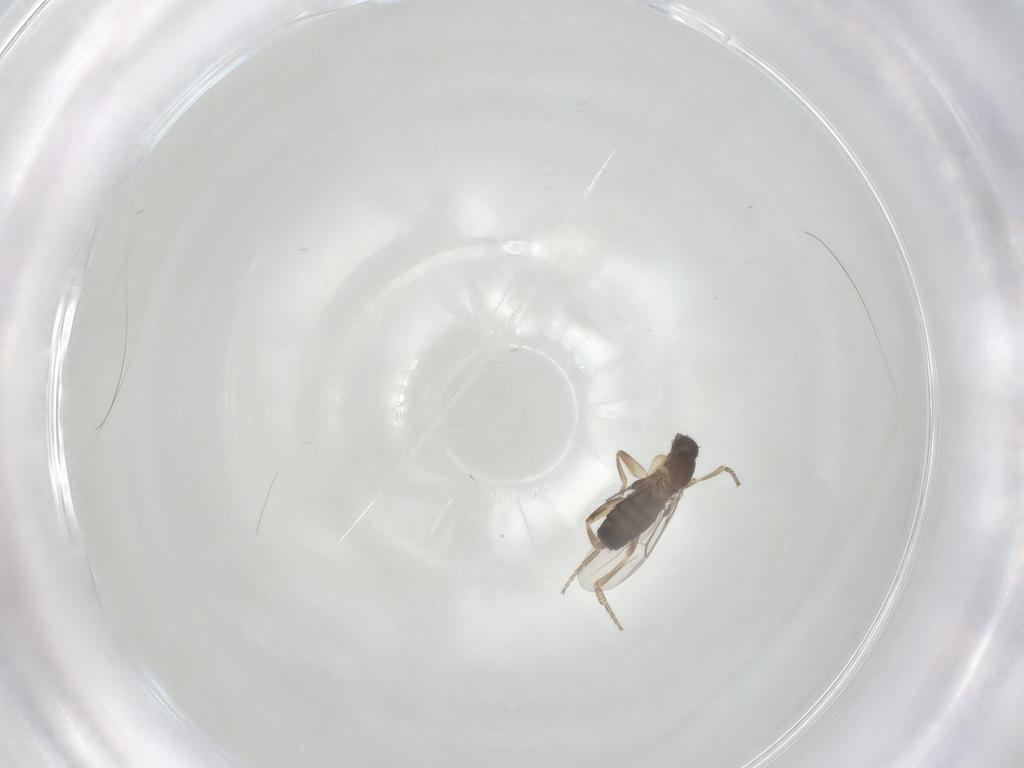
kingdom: Animalia
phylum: Arthropoda
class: Insecta
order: Diptera
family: Phoridae
